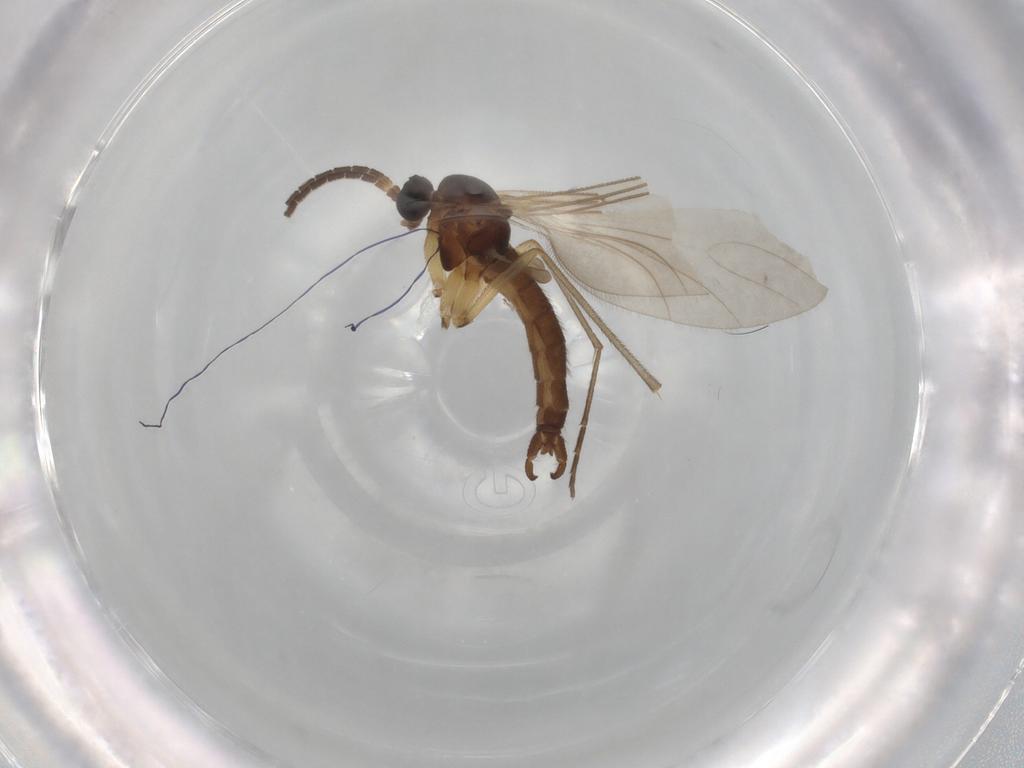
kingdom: Animalia
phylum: Arthropoda
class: Insecta
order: Diptera
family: Sciaridae
